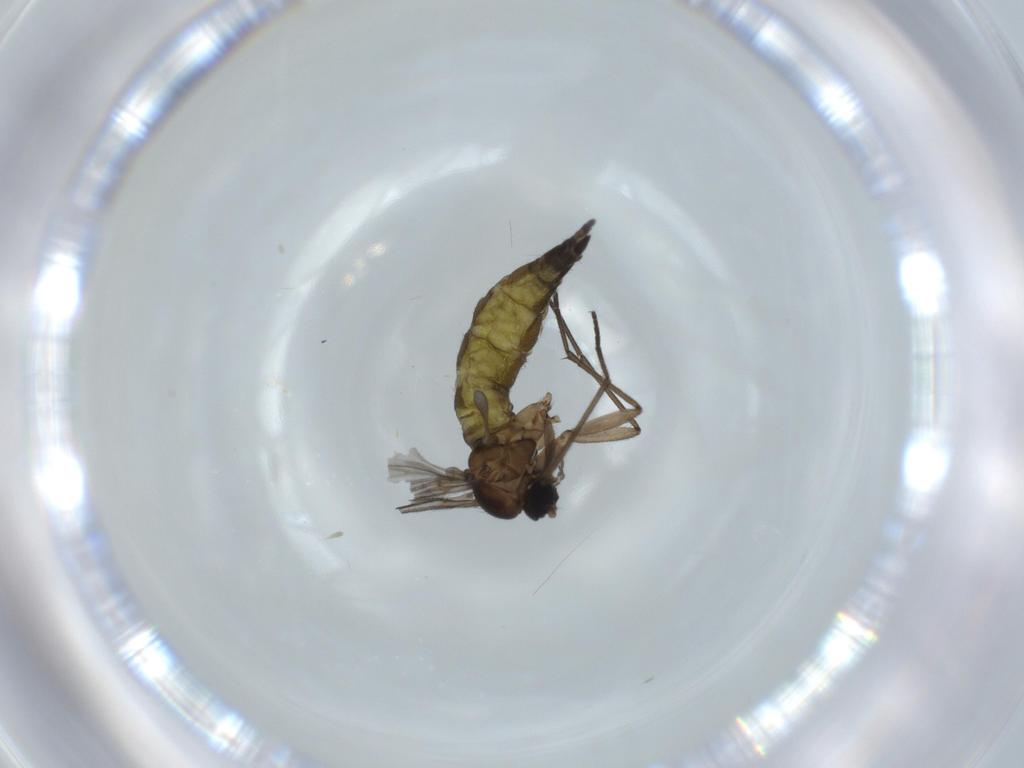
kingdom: Animalia
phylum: Arthropoda
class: Insecta
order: Diptera
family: Sciaridae
